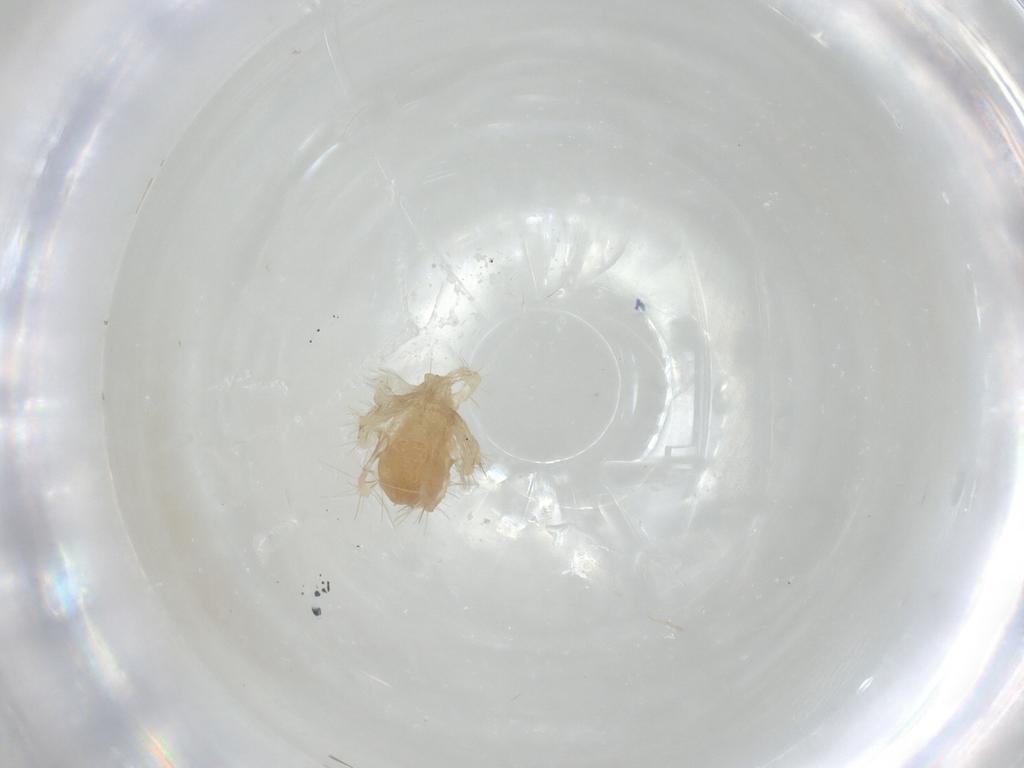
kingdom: Animalia
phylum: Arthropoda
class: Arachnida
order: Trombidiformes
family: Anystidae
